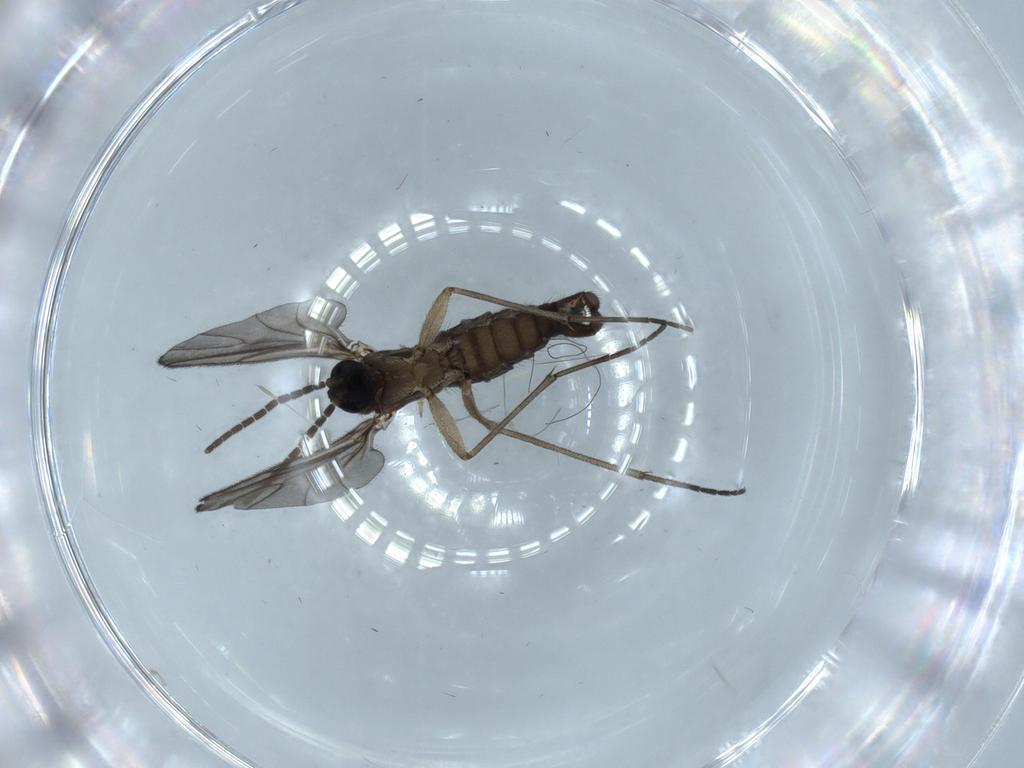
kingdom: Animalia
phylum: Arthropoda
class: Insecta
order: Diptera
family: Sciaridae
